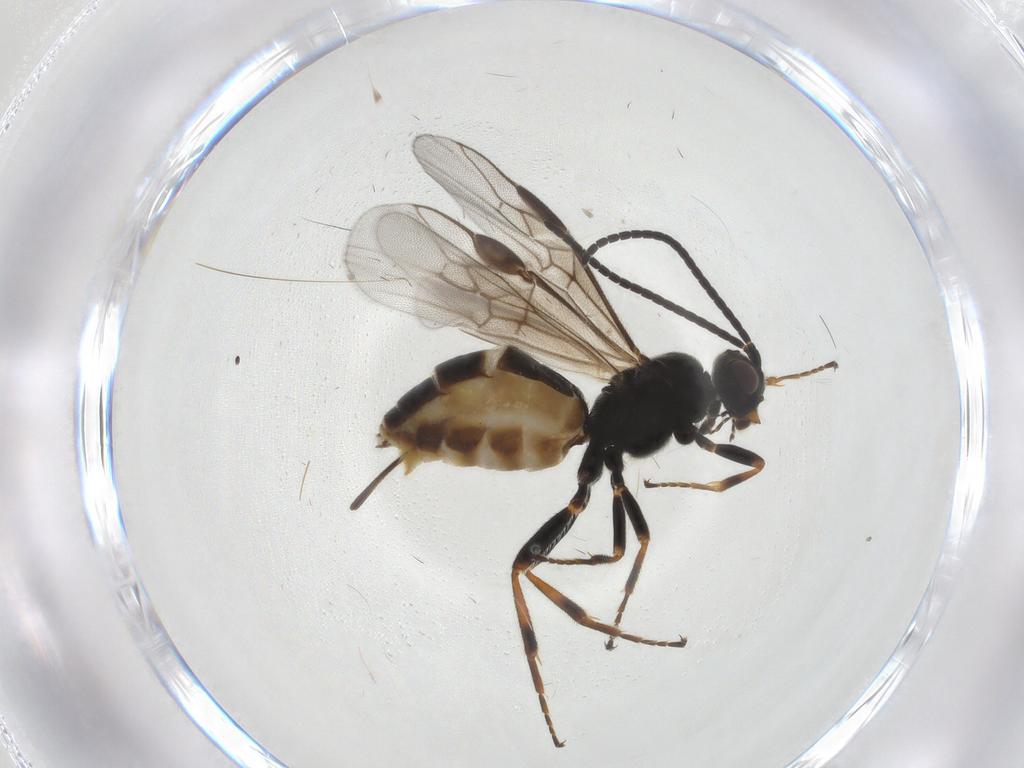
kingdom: Animalia
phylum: Arthropoda
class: Insecta
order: Hymenoptera
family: Braconidae
